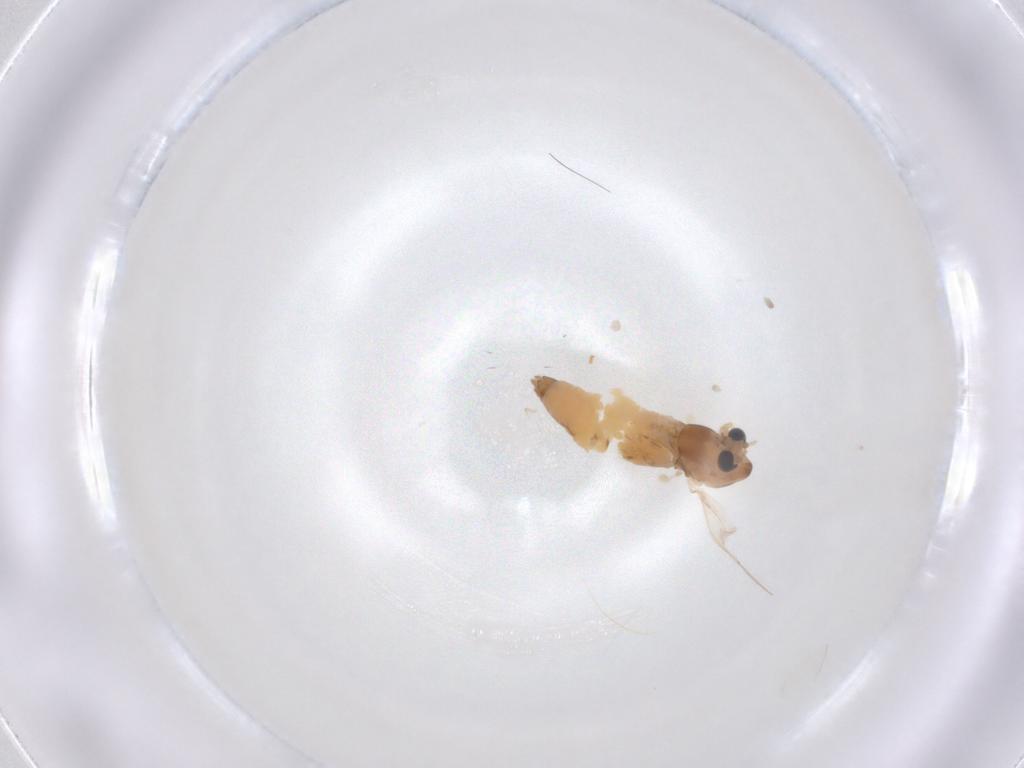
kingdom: Animalia
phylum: Arthropoda
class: Insecta
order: Diptera
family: Chironomidae
